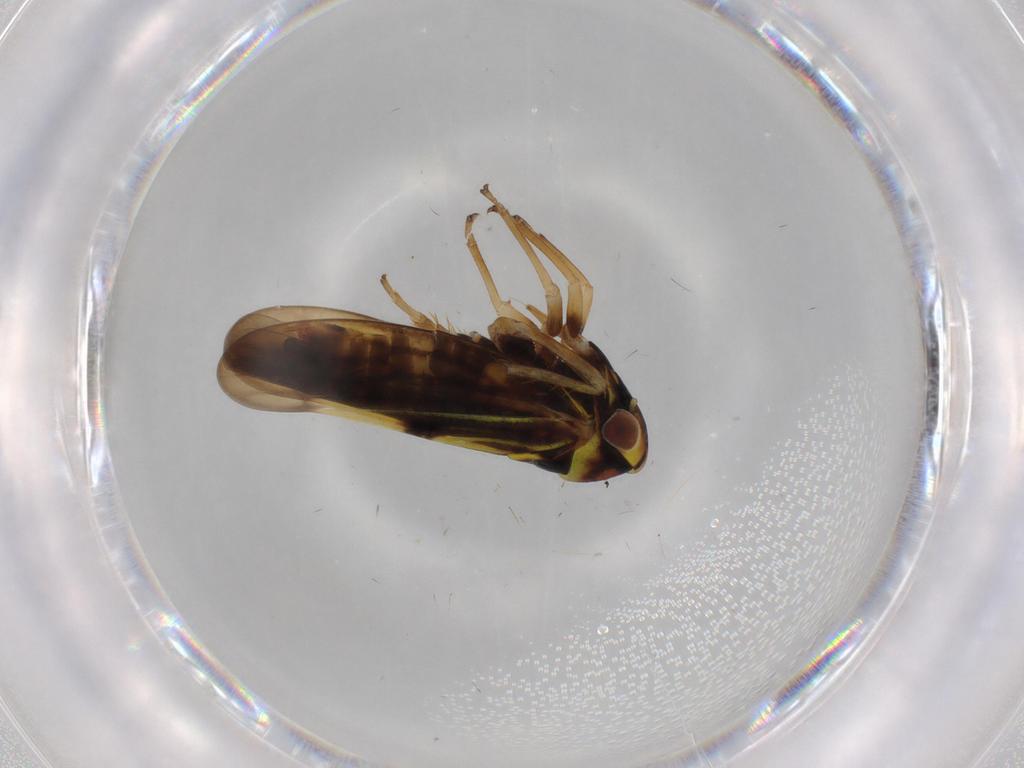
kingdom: Animalia
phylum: Arthropoda
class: Insecta
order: Hemiptera
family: Cicadellidae
